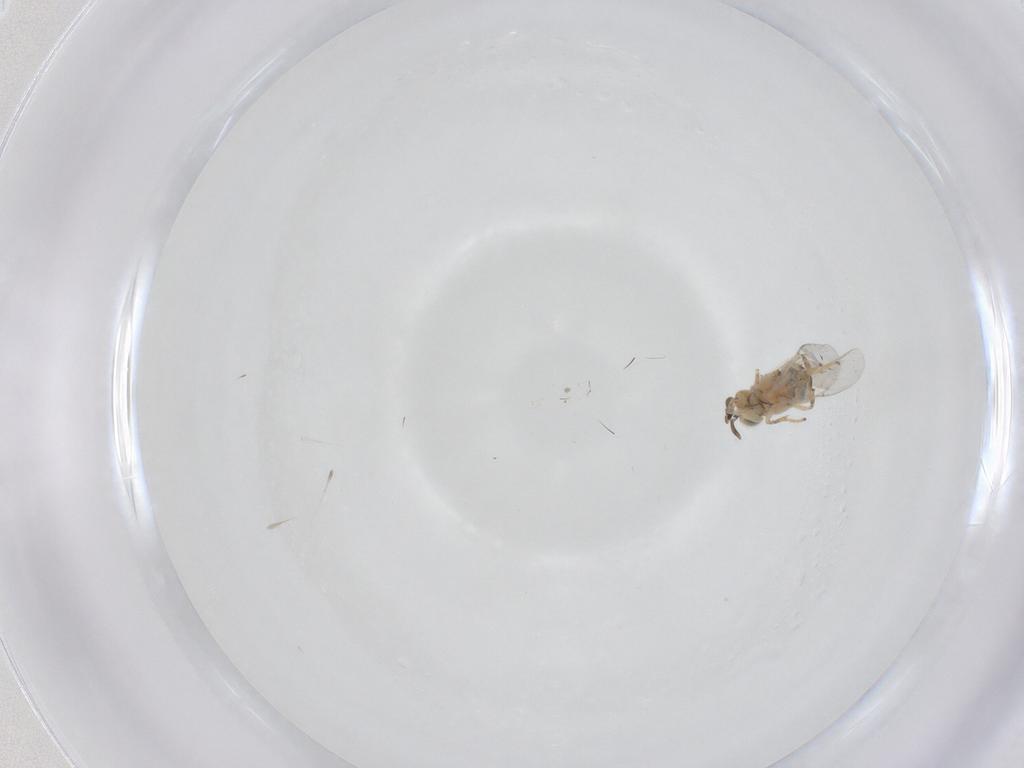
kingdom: Animalia
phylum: Arthropoda
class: Insecta
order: Hymenoptera
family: Encyrtidae
